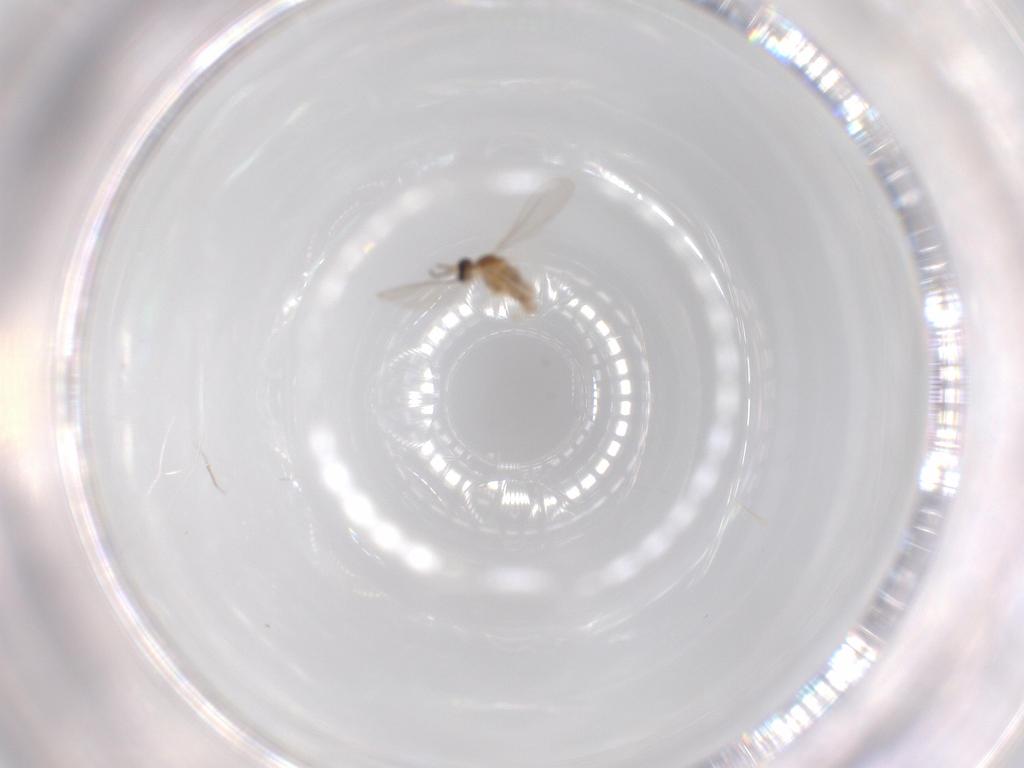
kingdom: Animalia
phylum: Arthropoda
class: Insecta
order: Diptera
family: Cecidomyiidae
